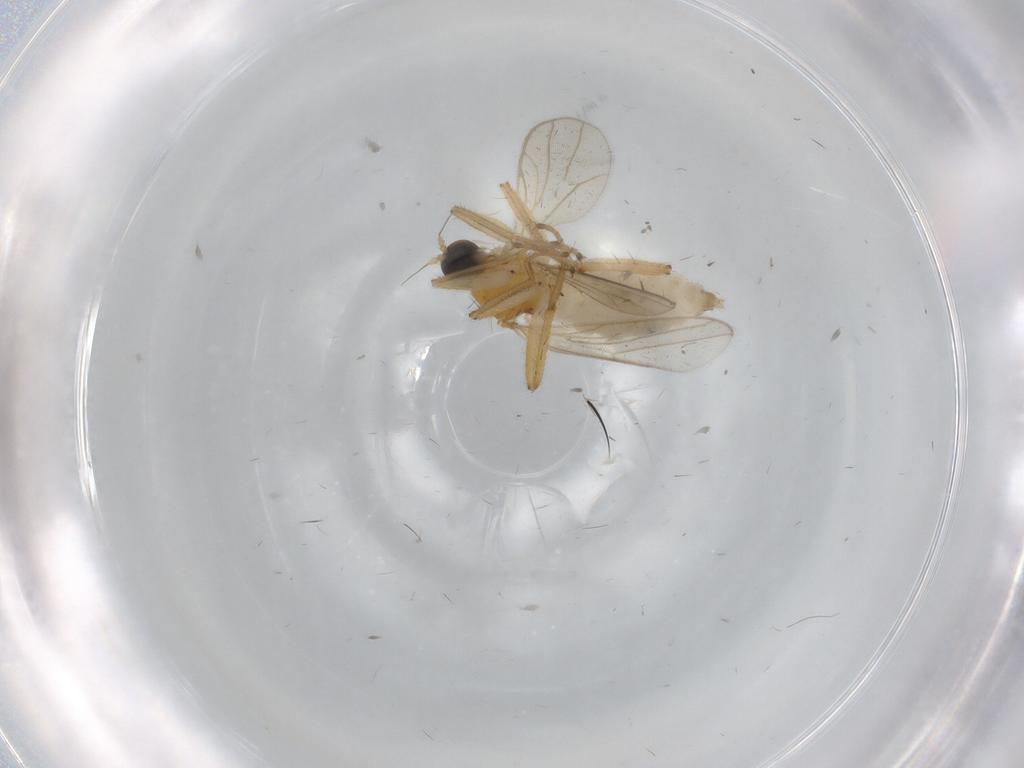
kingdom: Animalia
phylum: Arthropoda
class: Insecta
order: Diptera
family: Hybotidae
